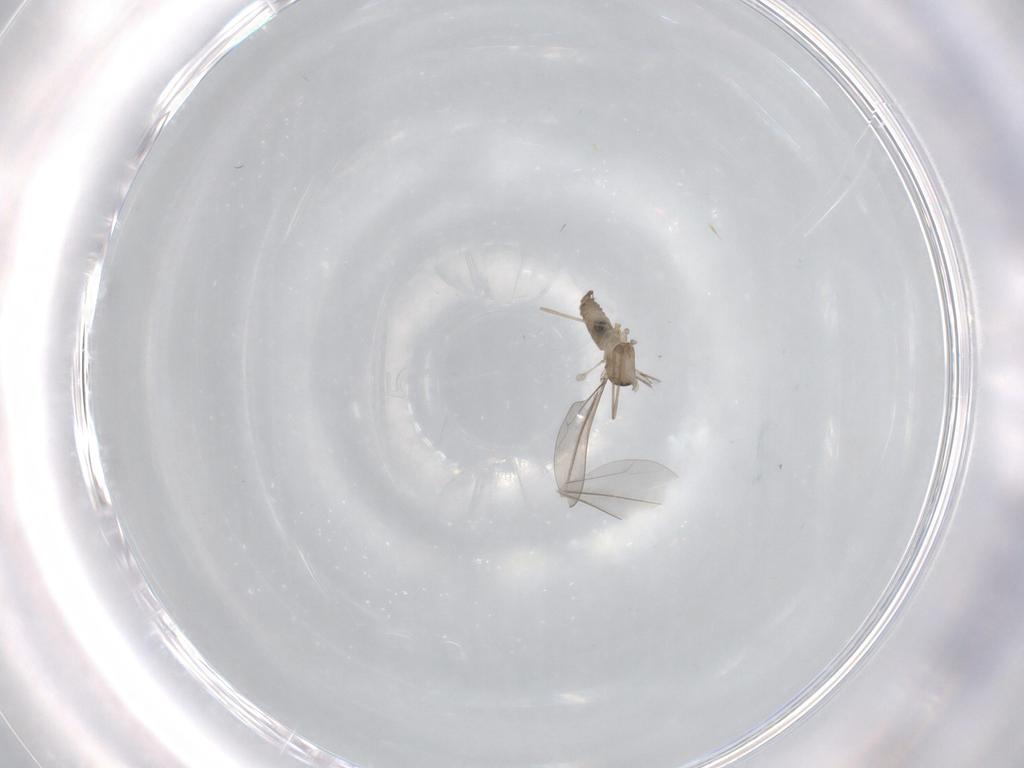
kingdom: Animalia
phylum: Arthropoda
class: Insecta
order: Diptera
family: Cecidomyiidae
